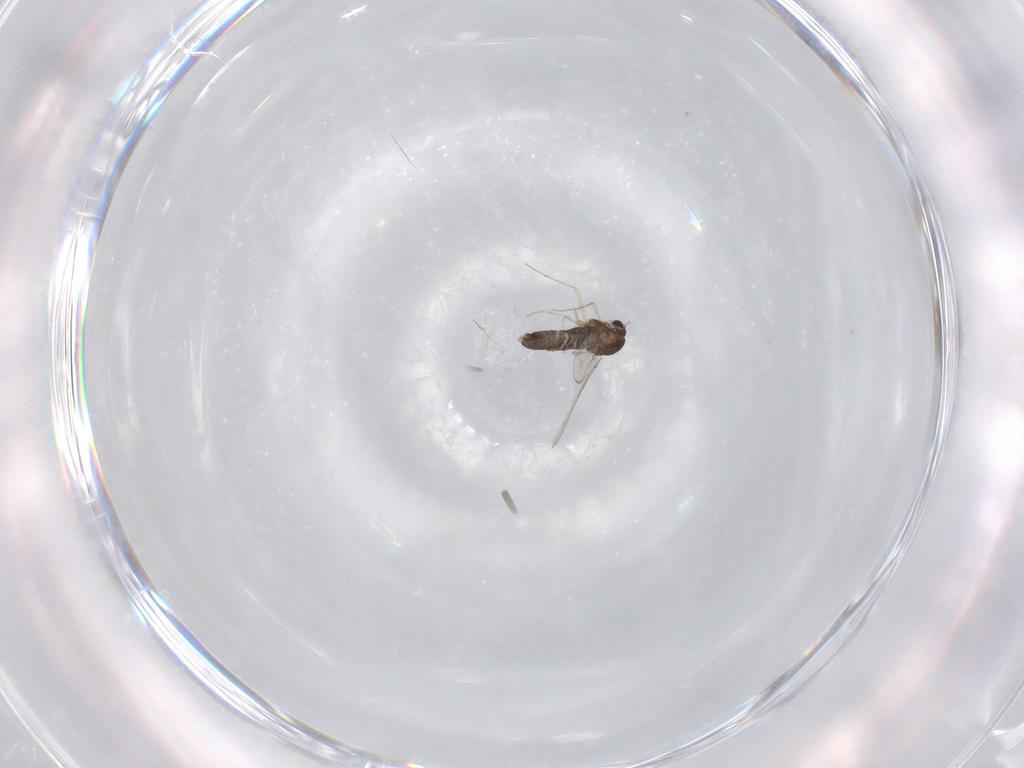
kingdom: Animalia
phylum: Arthropoda
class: Insecta
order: Diptera
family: Chironomidae
